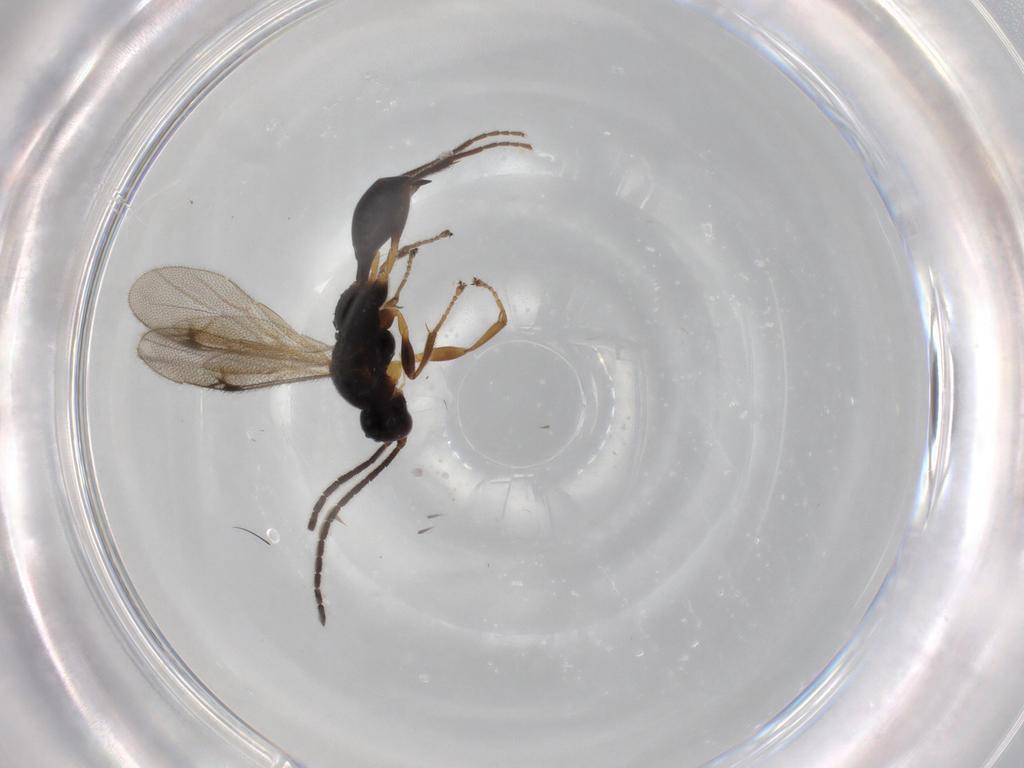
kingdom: Animalia
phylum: Arthropoda
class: Insecta
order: Hymenoptera
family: Proctotrupidae
